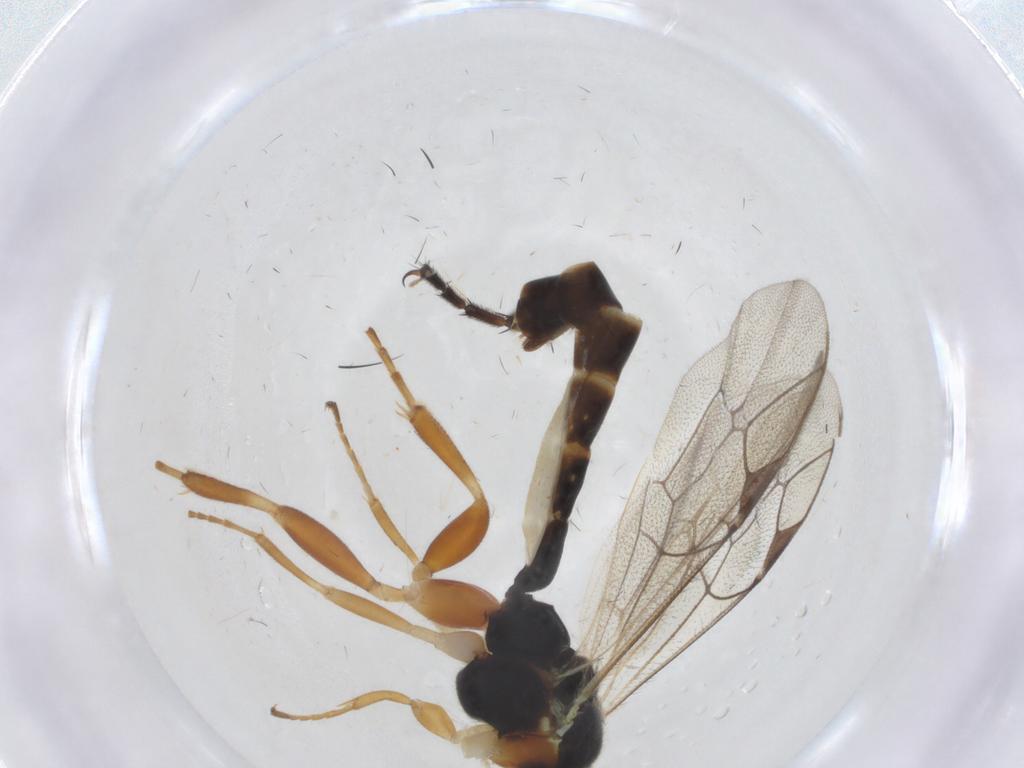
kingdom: Animalia
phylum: Arthropoda
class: Insecta
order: Hymenoptera
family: Ichneumonidae
